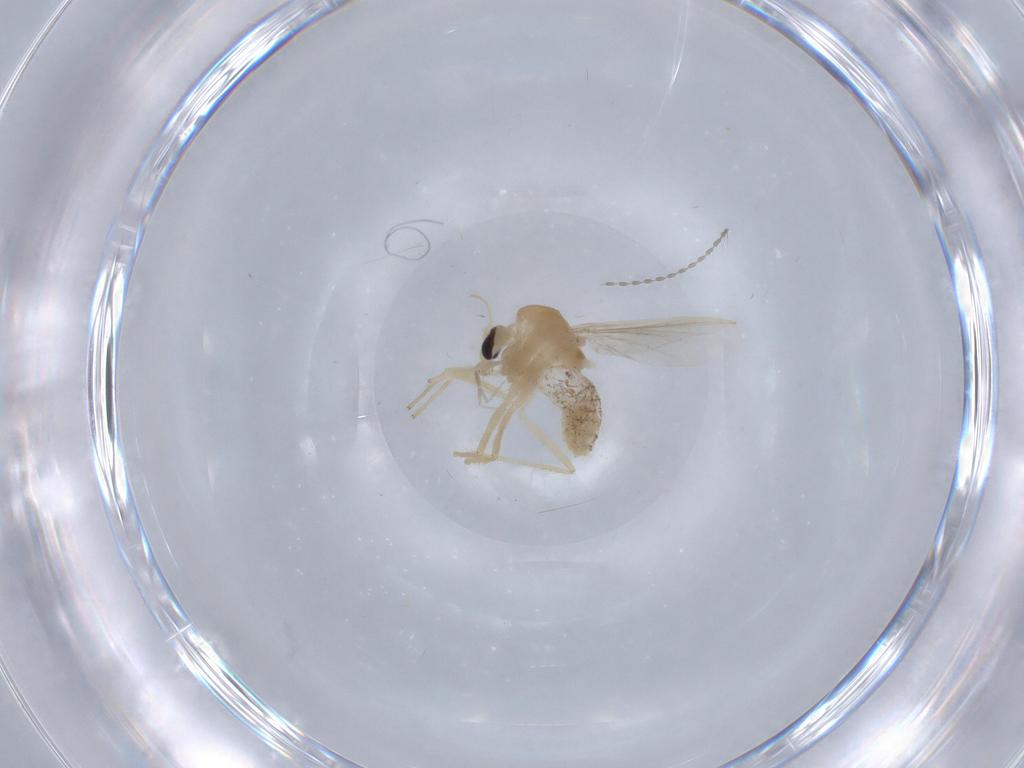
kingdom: Animalia
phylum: Arthropoda
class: Insecta
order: Diptera
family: Chironomidae
